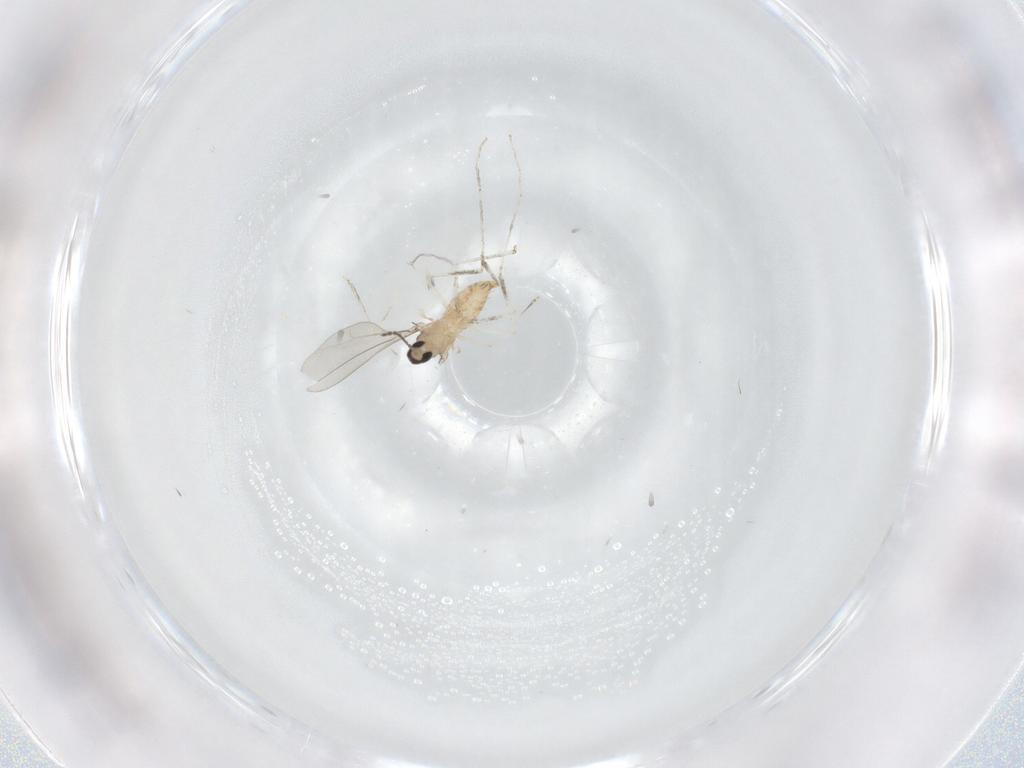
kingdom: Animalia
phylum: Arthropoda
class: Insecta
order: Diptera
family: Cecidomyiidae
